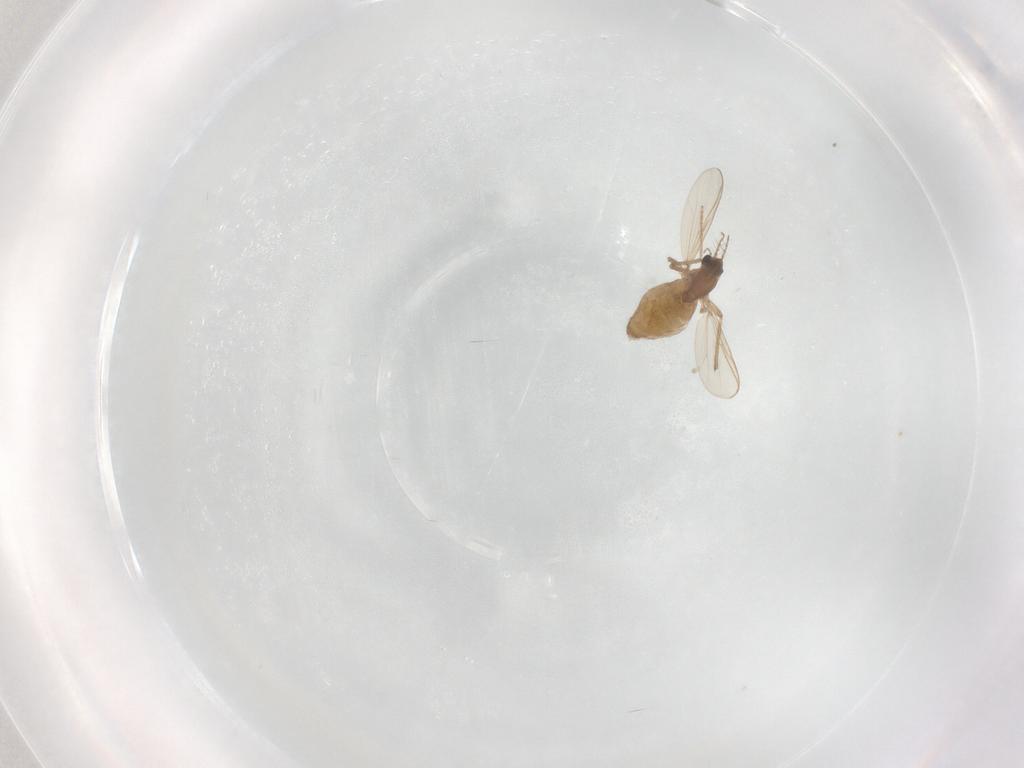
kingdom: Animalia
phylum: Arthropoda
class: Insecta
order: Diptera
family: Chironomidae
